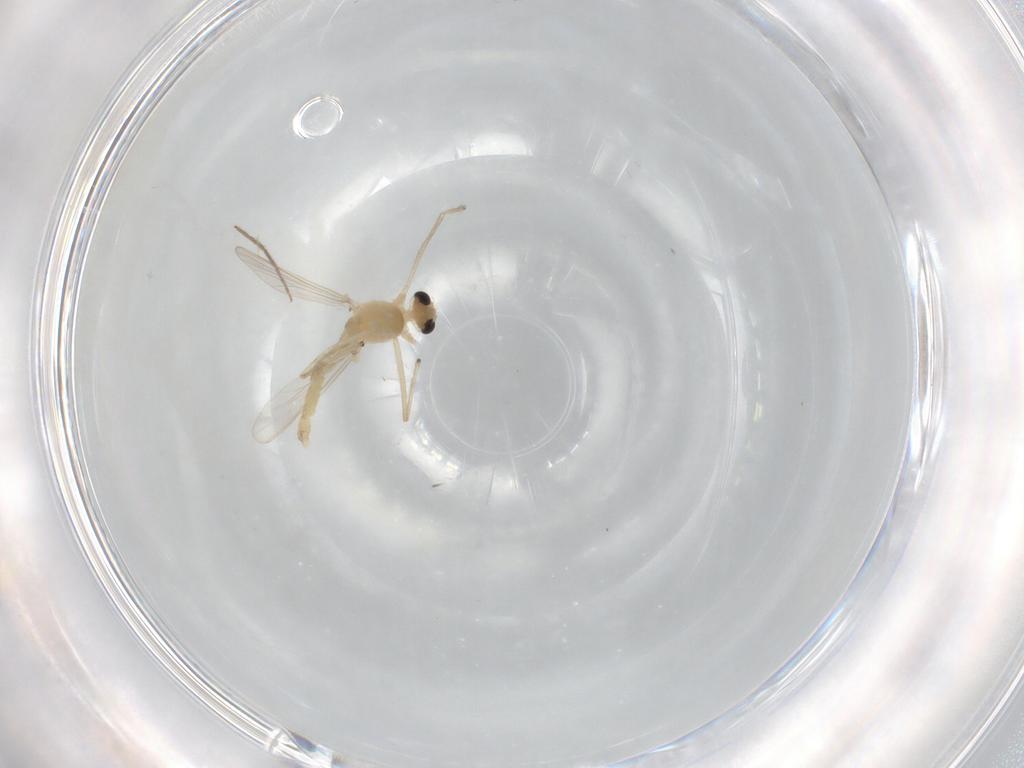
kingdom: Animalia
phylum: Arthropoda
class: Insecta
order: Diptera
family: Chironomidae
